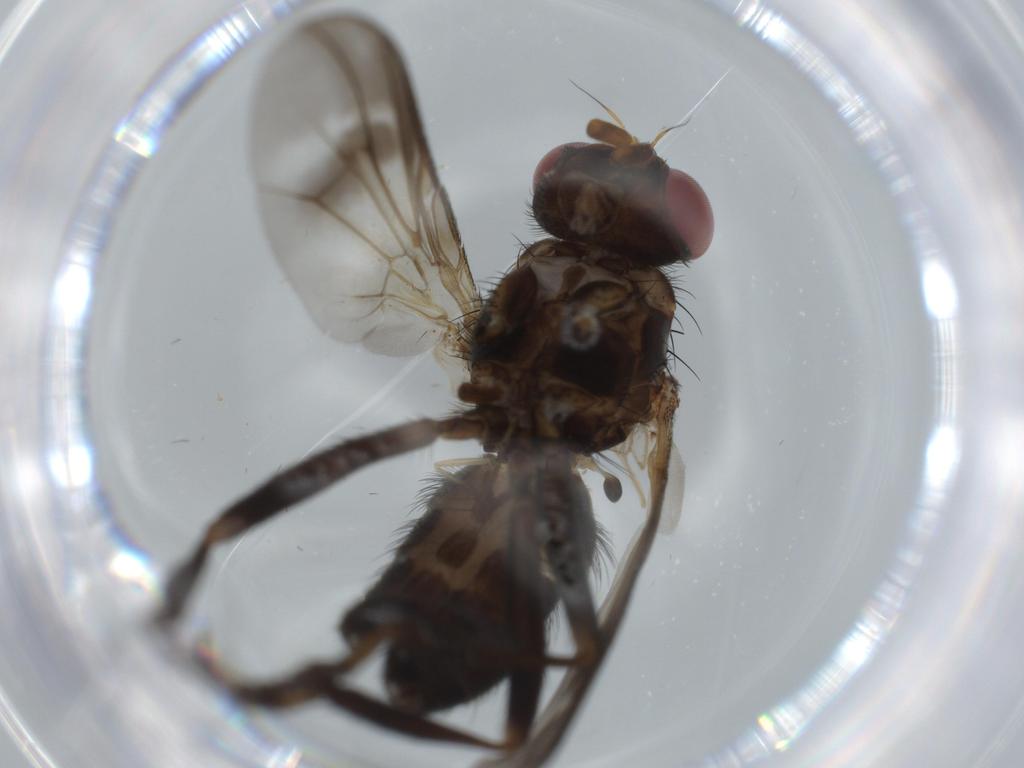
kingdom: Animalia
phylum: Arthropoda
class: Insecta
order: Diptera
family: Calliphoridae
